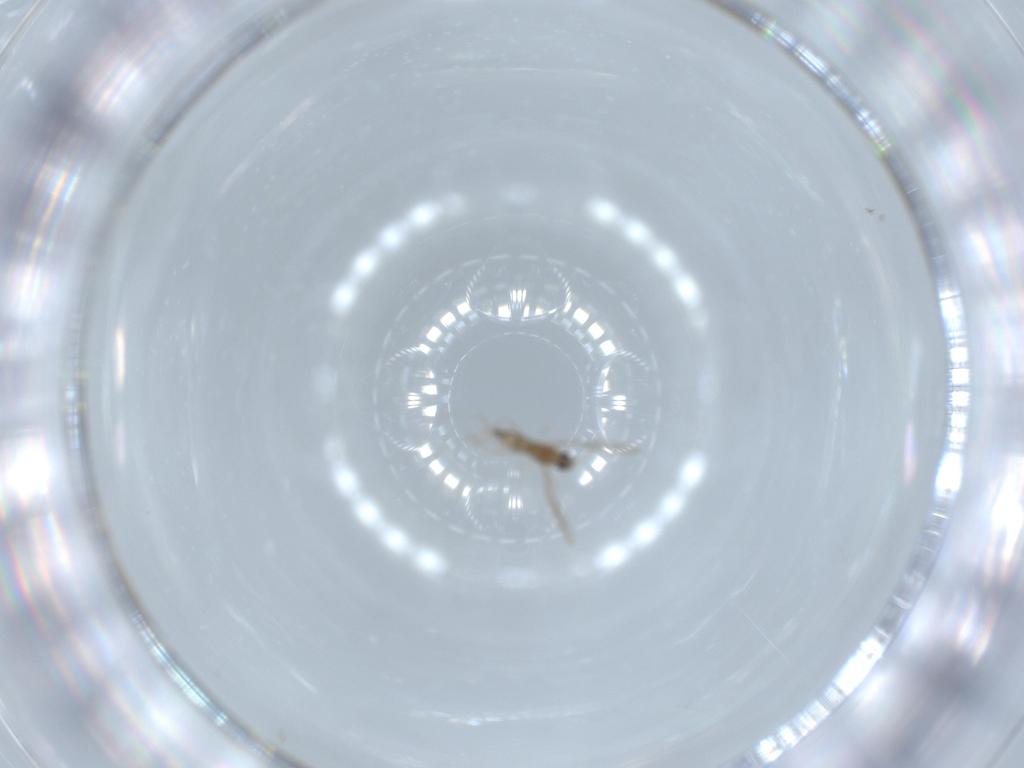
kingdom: Animalia
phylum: Arthropoda
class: Insecta
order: Diptera
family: Cecidomyiidae
